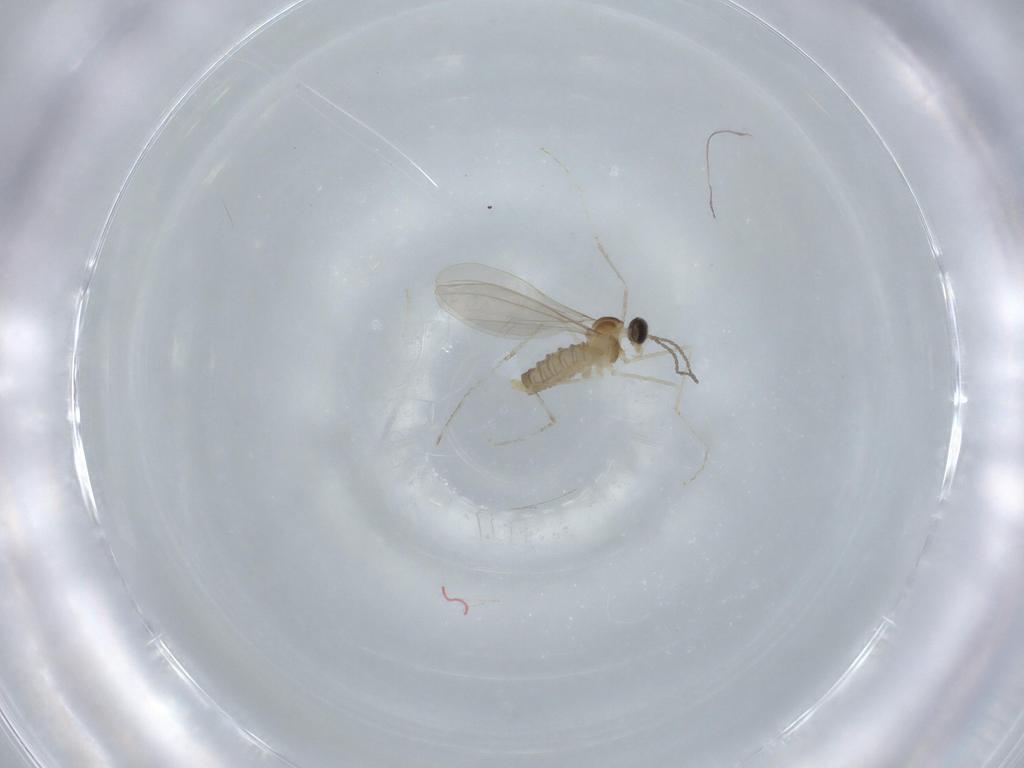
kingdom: Animalia
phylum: Arthropoda
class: Insecta
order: Diptera
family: Cecidomyiidae
